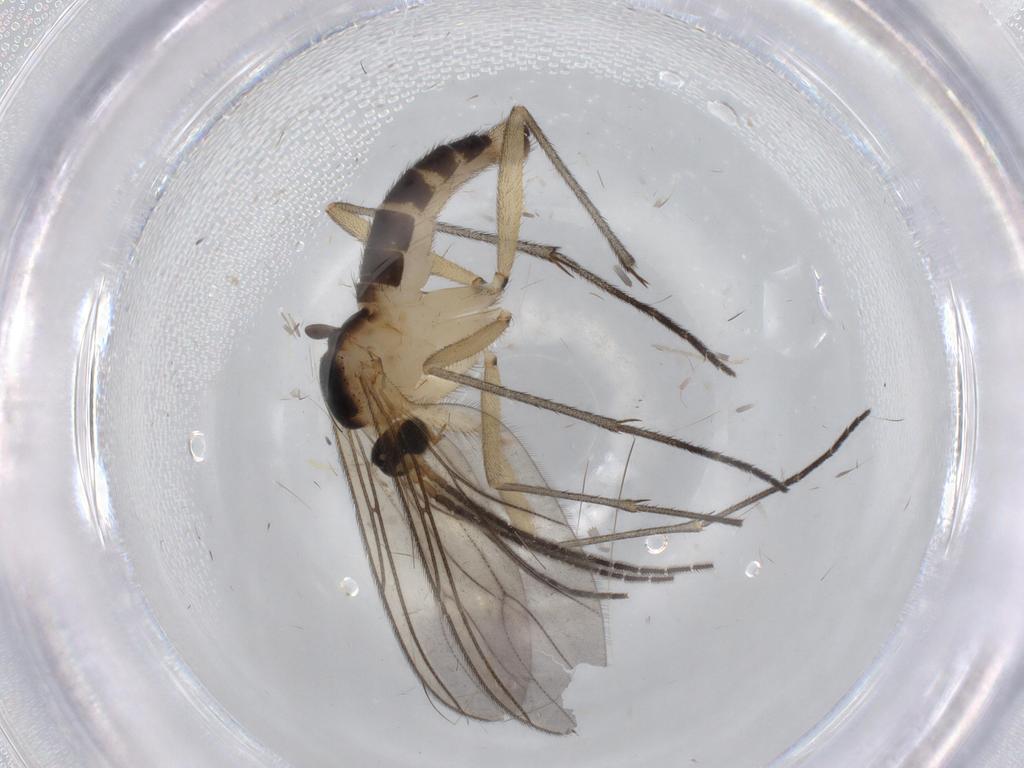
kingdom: Animalia
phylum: Arthropoda
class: Insecta
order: Diptera
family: Sciaridae
